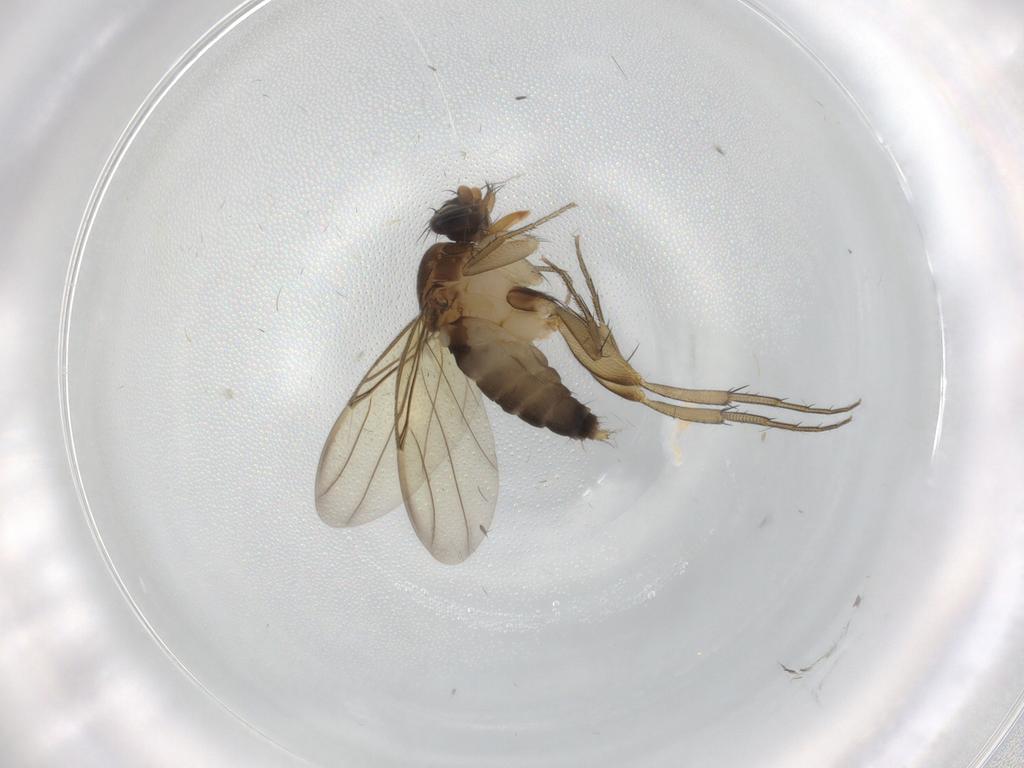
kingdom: Animalia
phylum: Arthropoda
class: Insecta
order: Diptera
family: Phoridae
